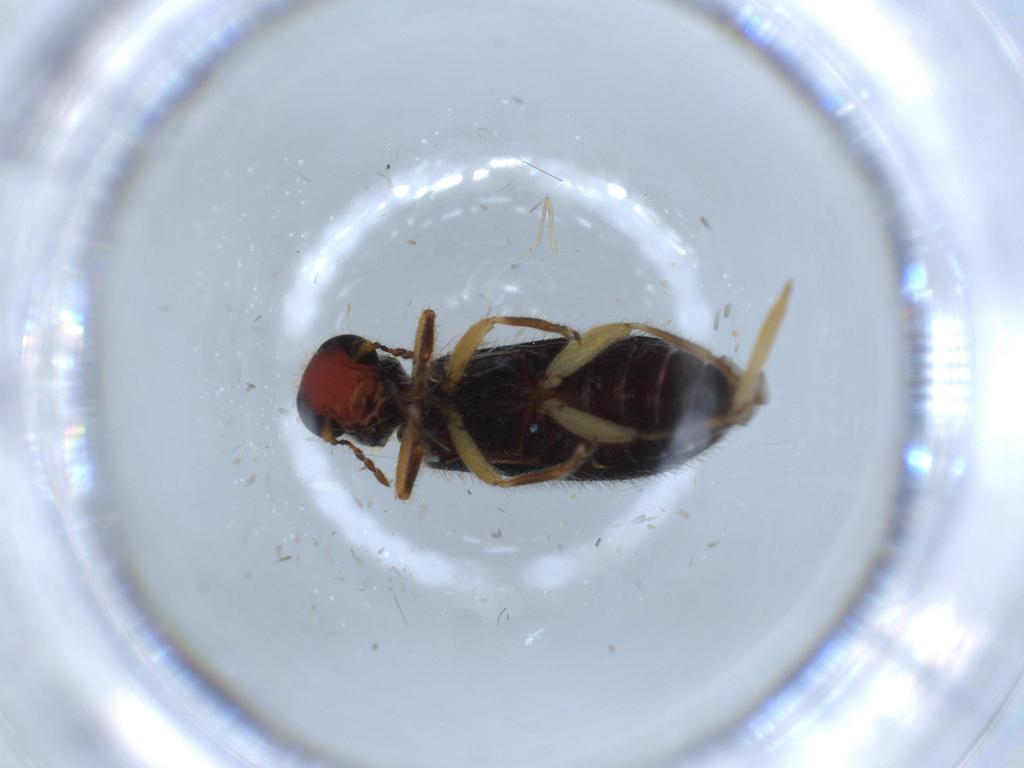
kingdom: Animalia
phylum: Arthropoda
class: Insecta
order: Coleoptera
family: Cleridae
